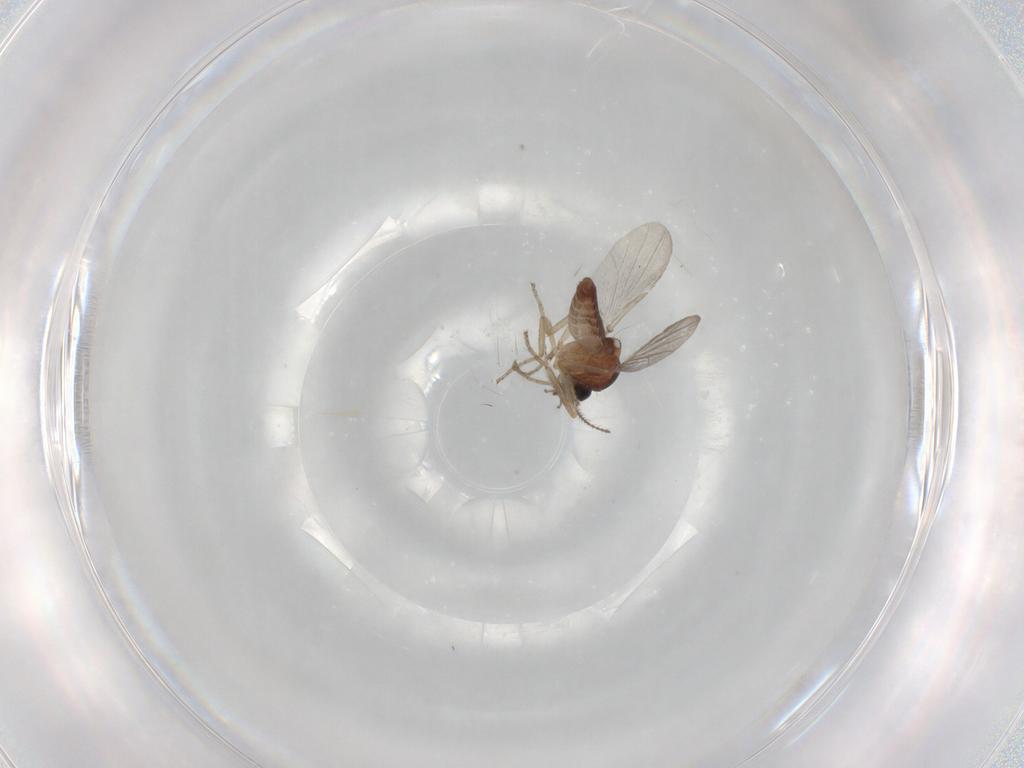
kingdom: Animalia
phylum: Arthropoda
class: Insecta
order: Diptera
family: Ceratopogonidae
